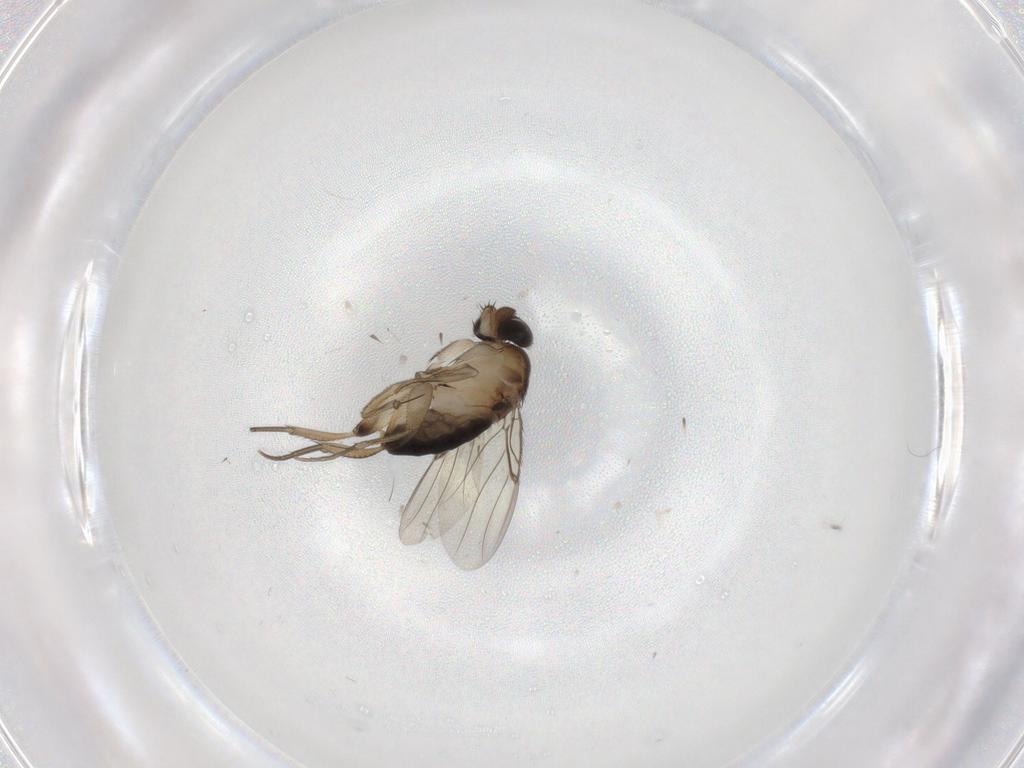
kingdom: Animalia
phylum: Arthropoda
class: Insecta
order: Diptera
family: Phoridae
